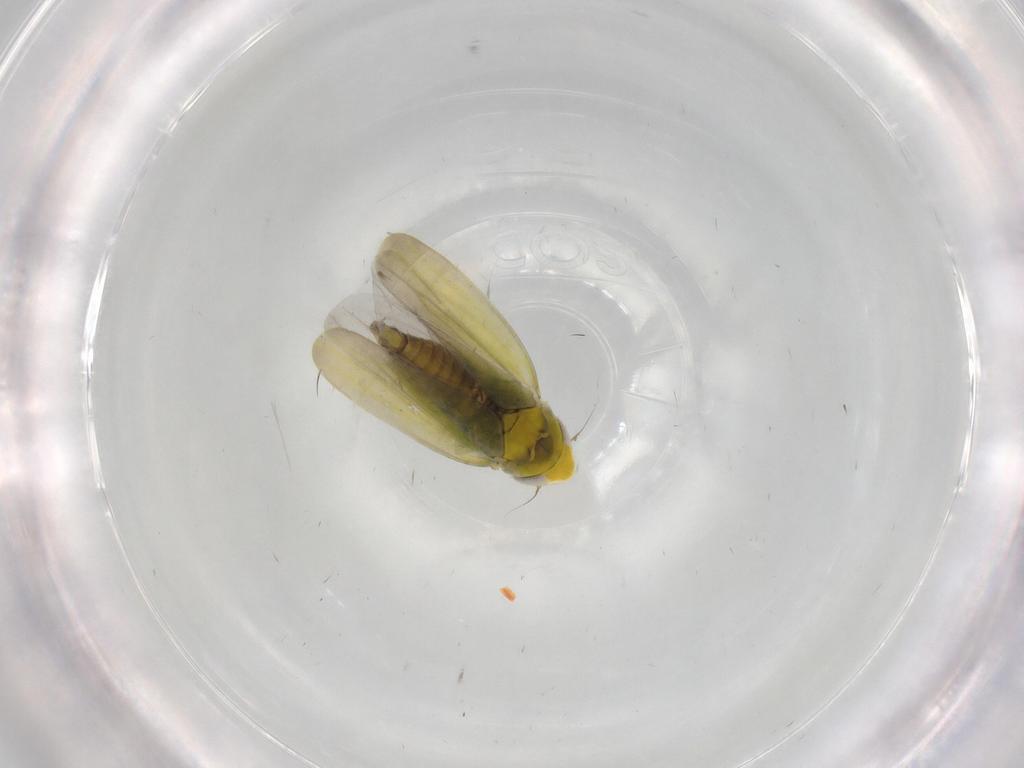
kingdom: Animalia
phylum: Arthropoda
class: Insecta
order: Hemiptera
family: Cicadellidae
